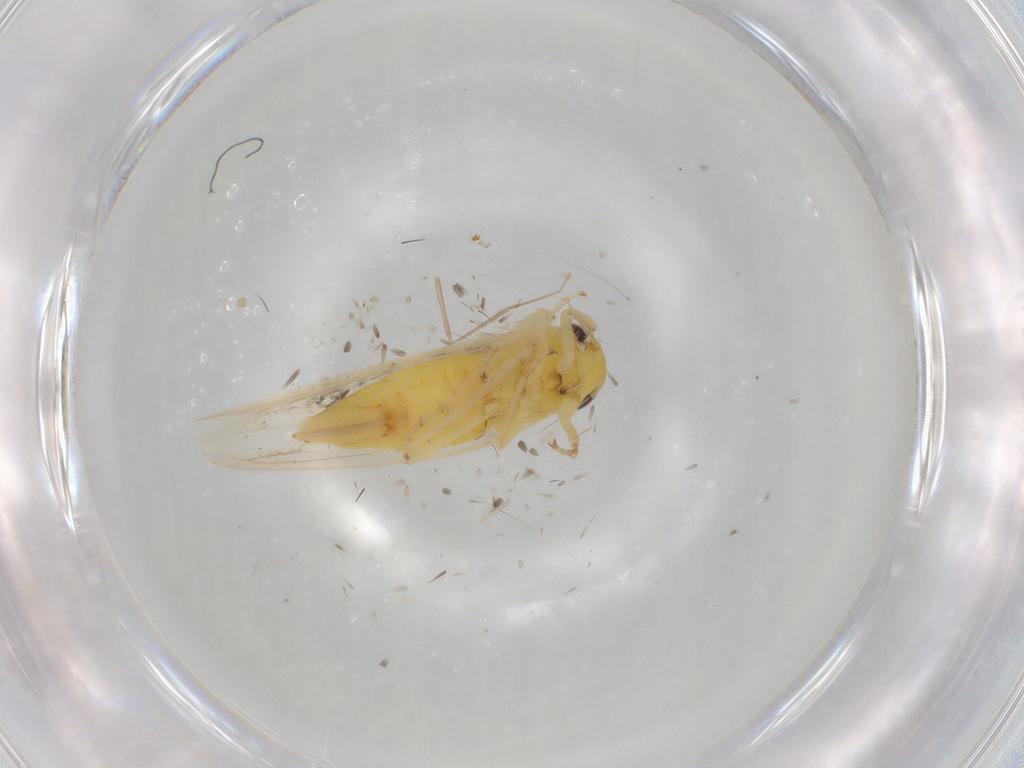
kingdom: Animalia
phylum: Arthropoda
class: Insecta
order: Hemiptera
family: Cicadellidae
